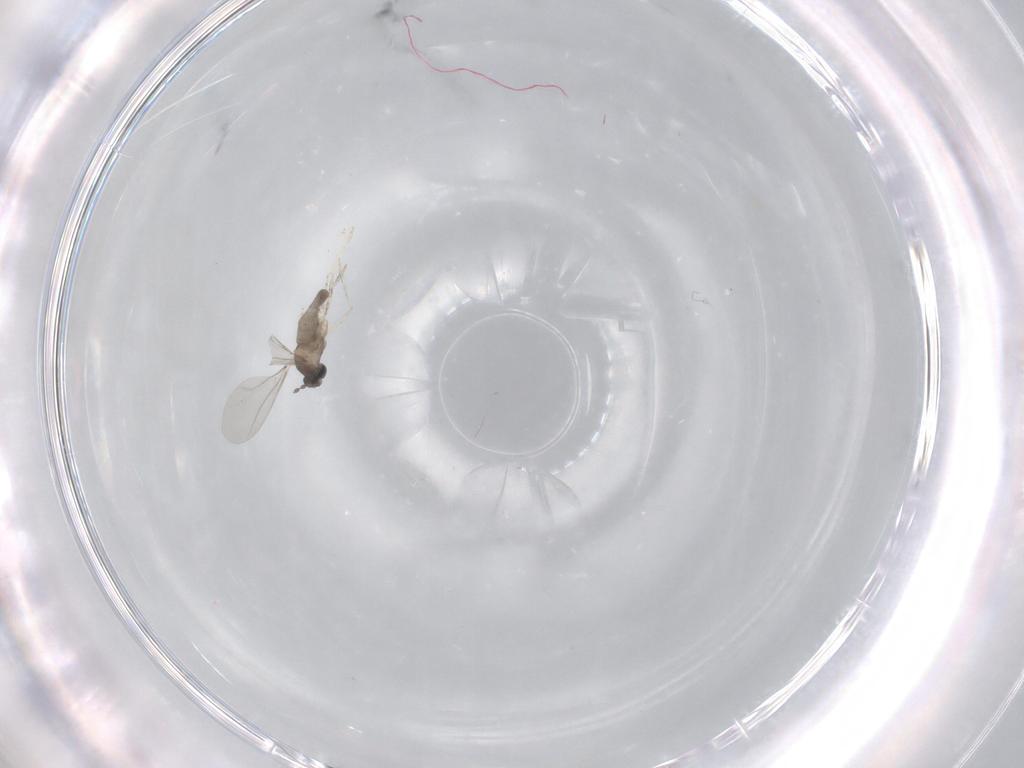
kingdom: Animalia
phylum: Arthropoda
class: Insecta
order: Diptera
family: Cecidomyiidae
